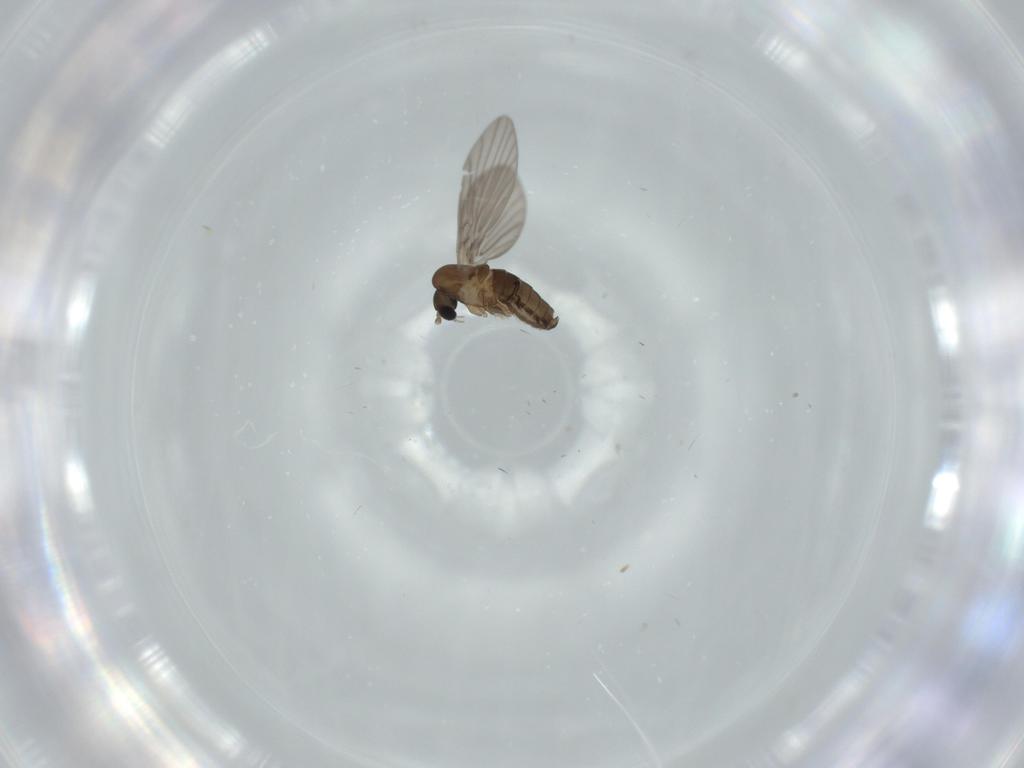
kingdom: Animalia
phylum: Arthropoda
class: Insecta
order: Diptera
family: Psychodidae
